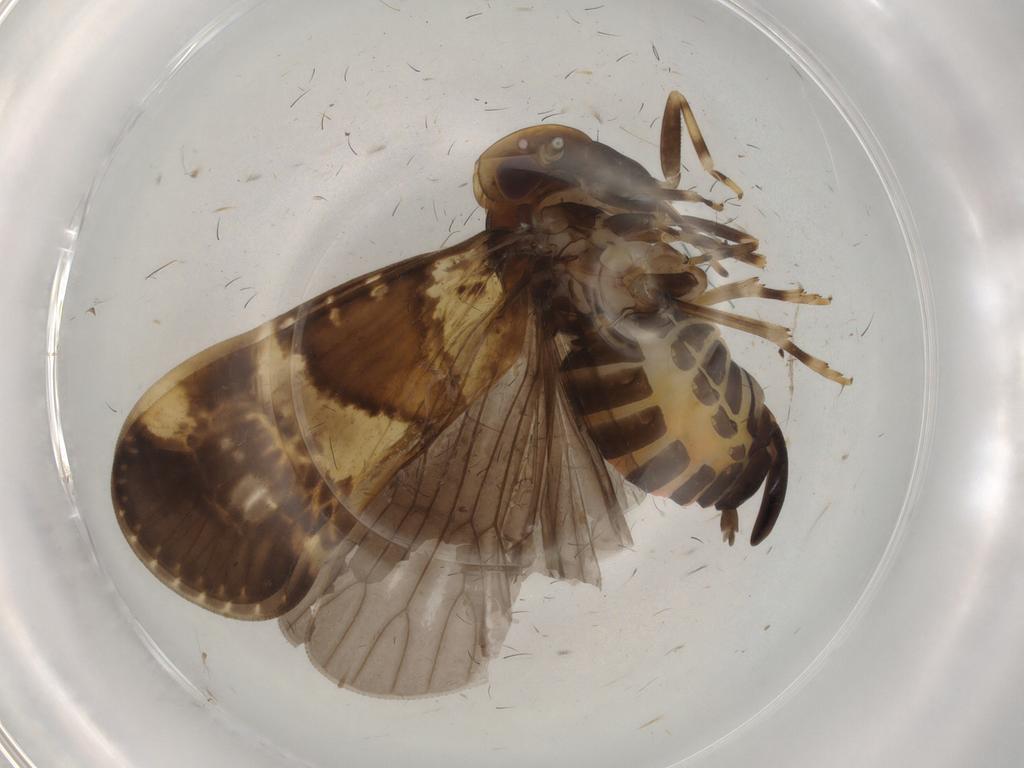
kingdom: Animalia
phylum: Arthropoda
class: Insecta
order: Hemiptera
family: Cixiidae
